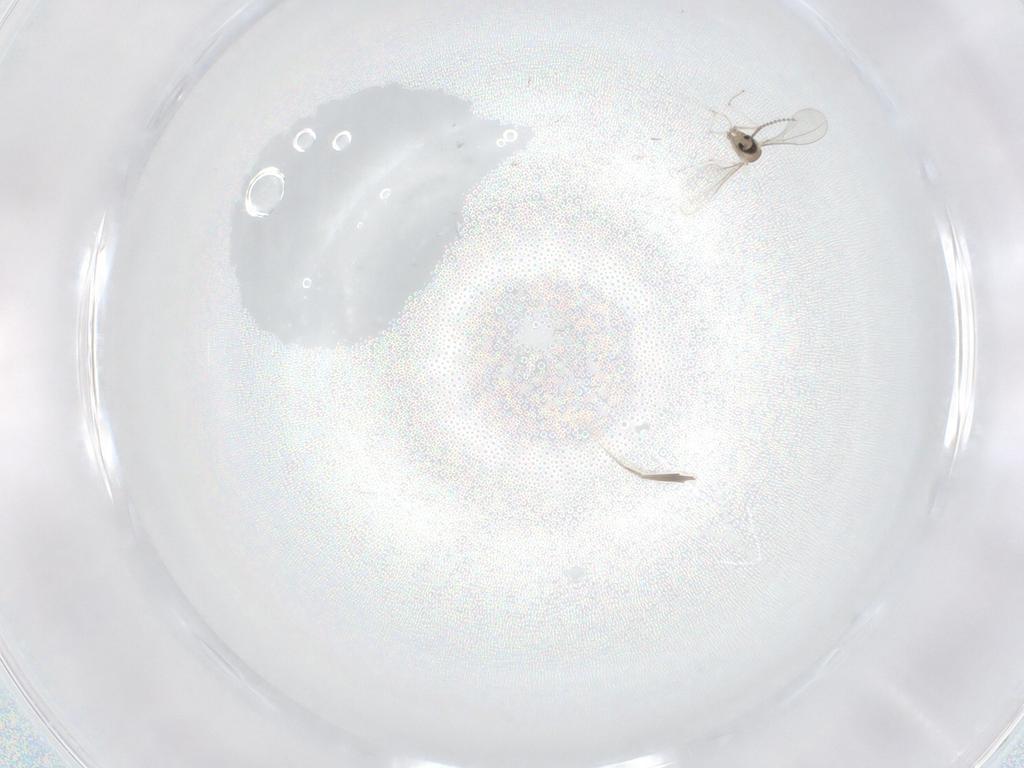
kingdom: Animalia
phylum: Arthropoda
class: Insecta
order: Diptera
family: Cecidomyiidae
